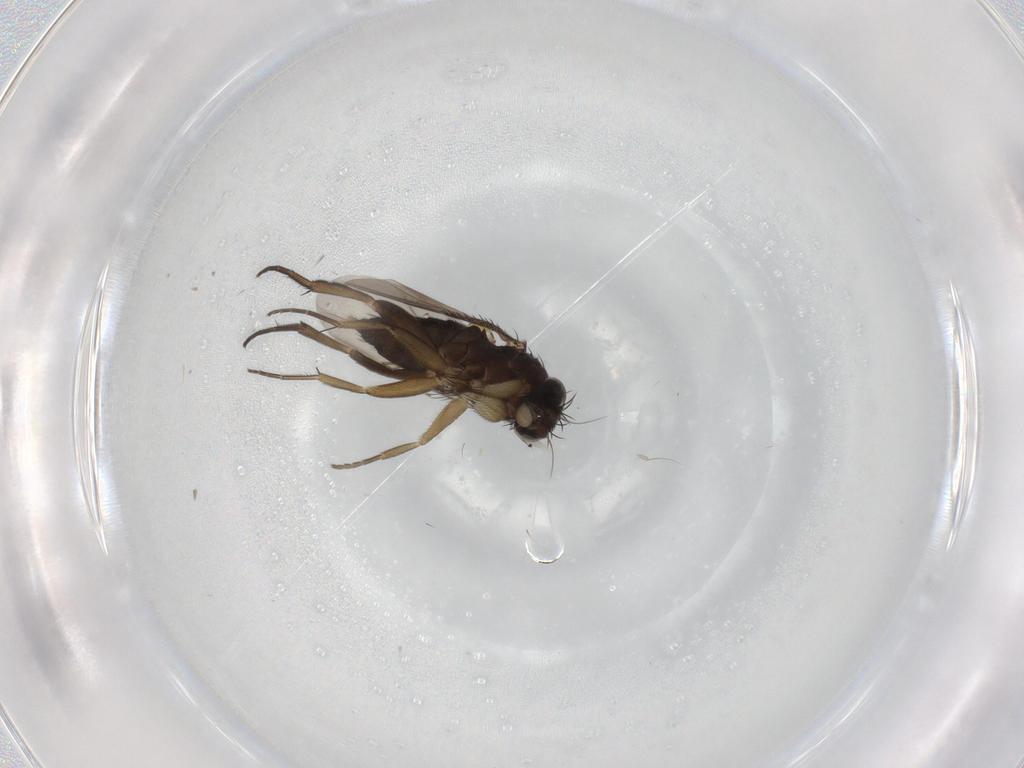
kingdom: Animalia
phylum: Arthropoda
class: Insecta
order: Diptera
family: Phoridae
